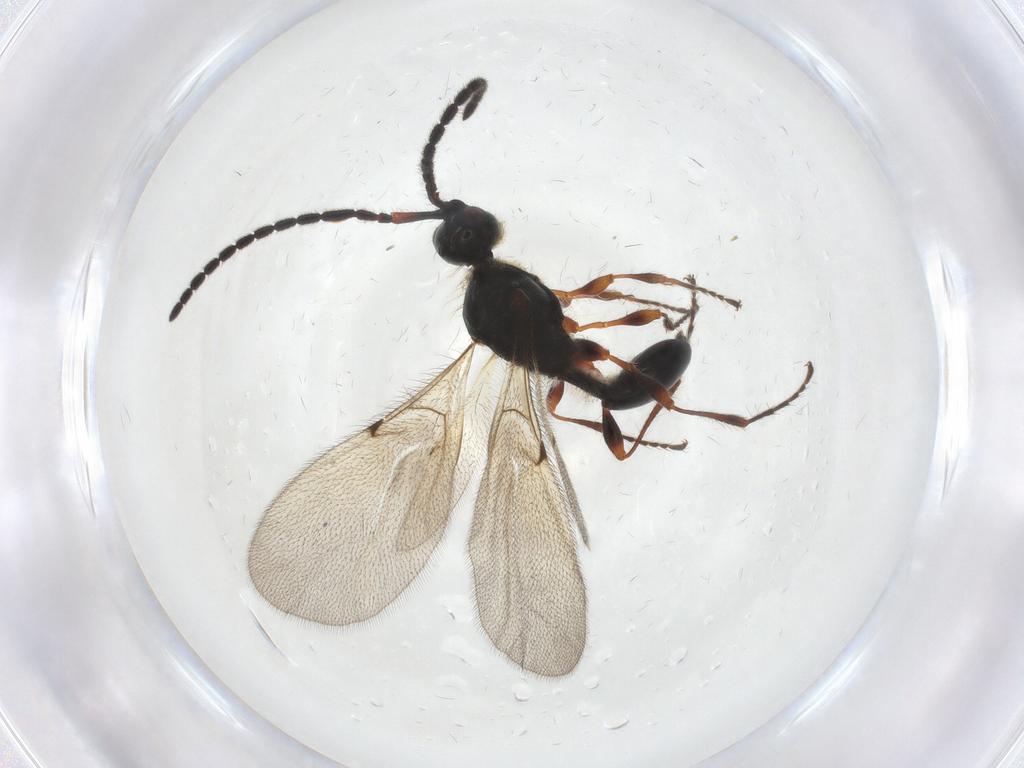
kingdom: Animalia
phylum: Arthropoda
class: Insecta
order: Hymenoptera
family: Diapriidae
